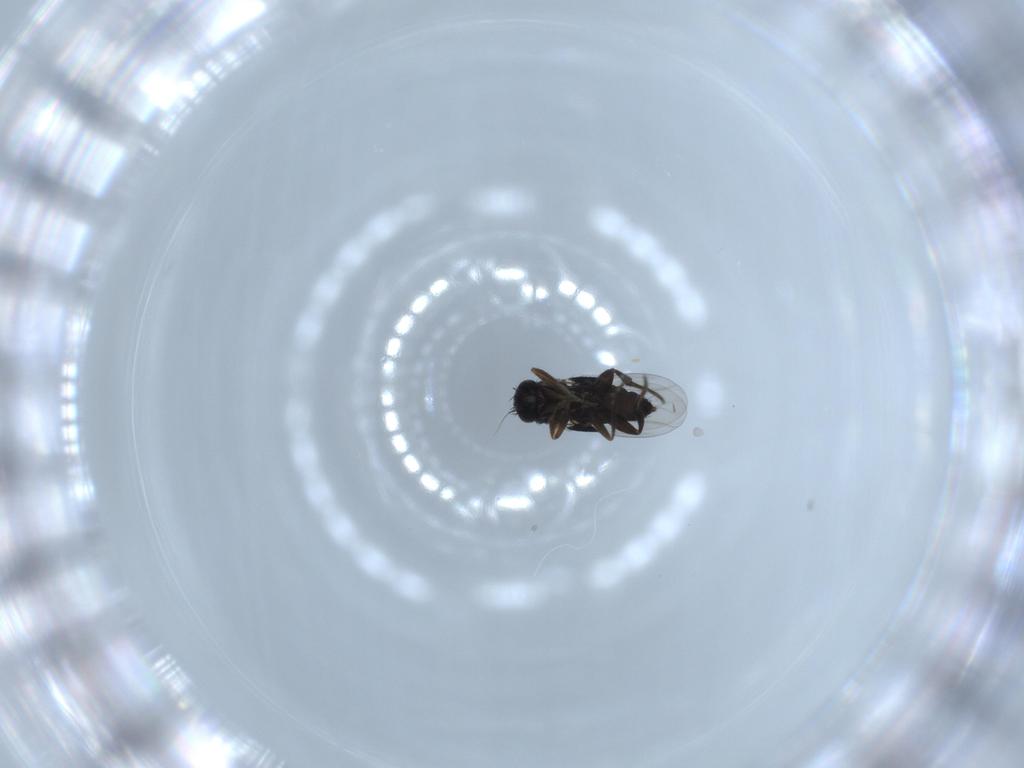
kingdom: Animalia
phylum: Arthropoda
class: Insecta
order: Diptera
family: Phoridae
